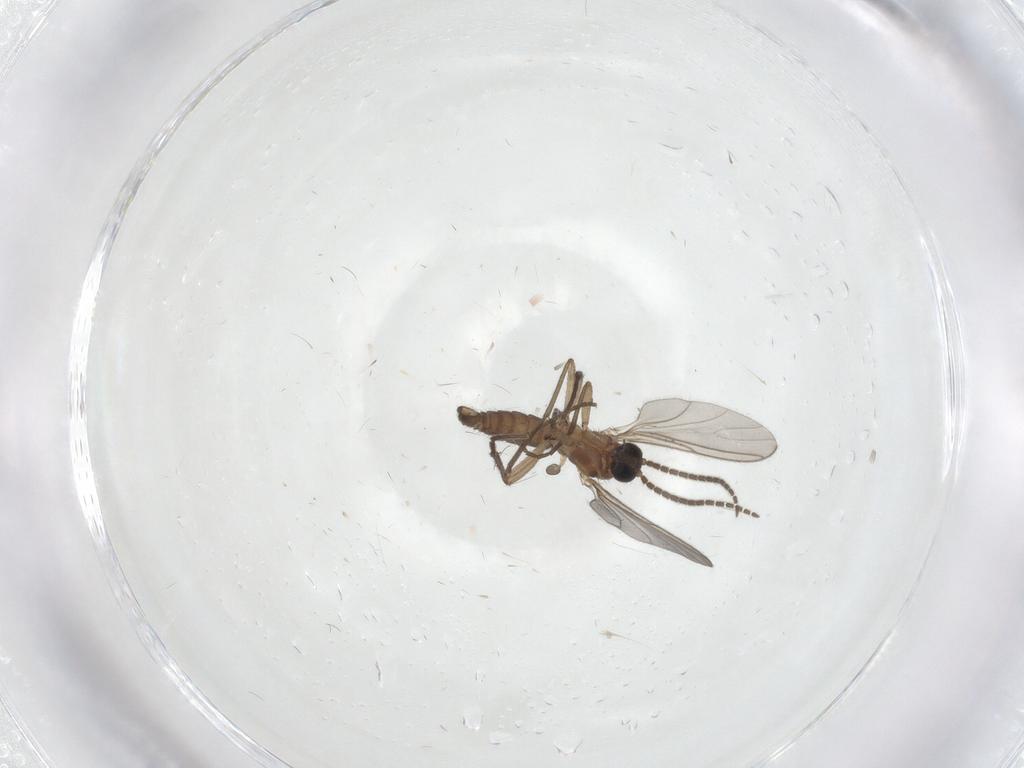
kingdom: Animalia
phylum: Arthropoda
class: Insecta
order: Diptera
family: Sciaridae
